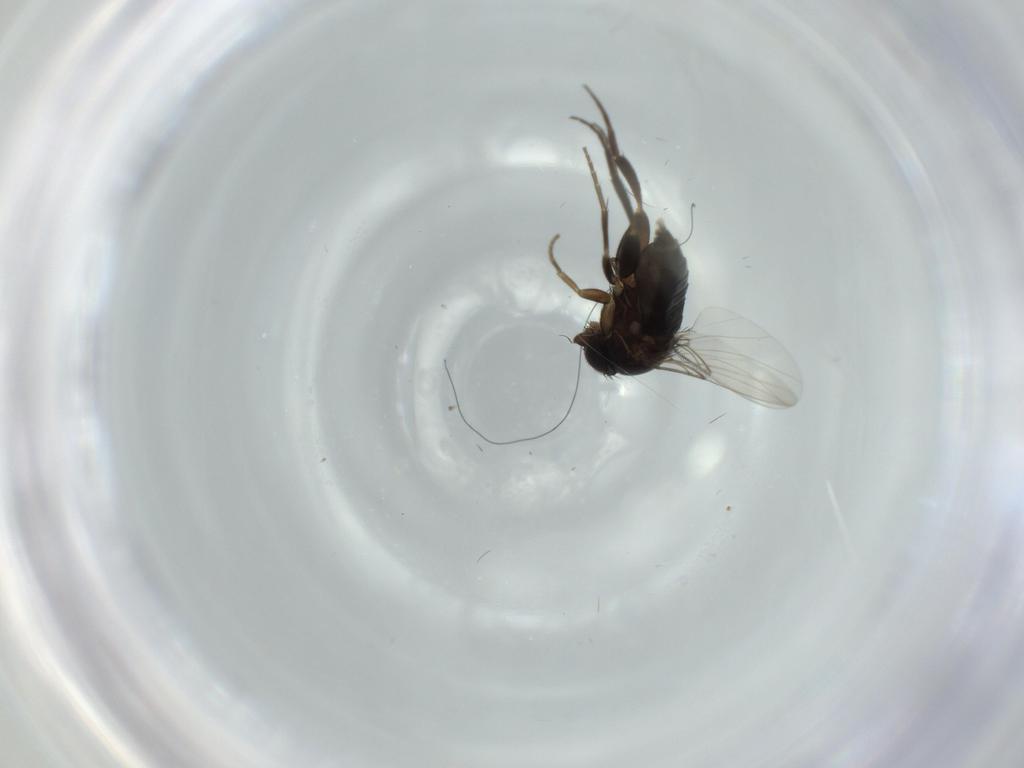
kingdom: Animalia
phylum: Arthropoda
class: Insecta
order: Diptera
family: Phoridae
